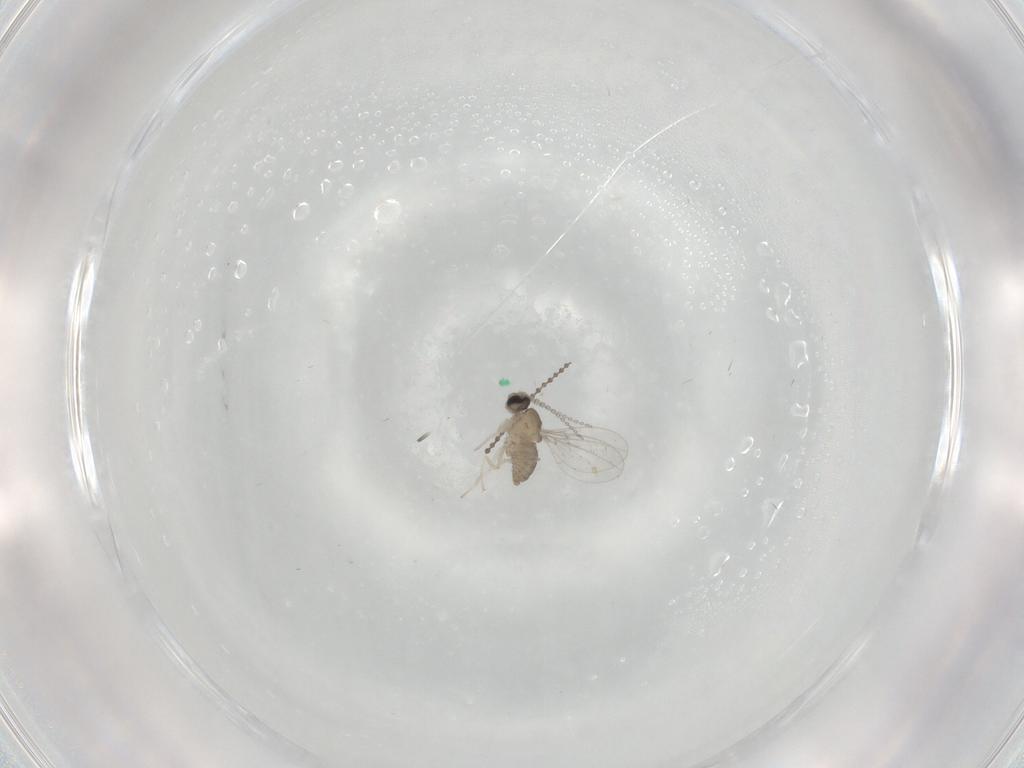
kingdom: Animalia
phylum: Arthropoda
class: Insecta
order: Diptera
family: Cecidomyiidae
